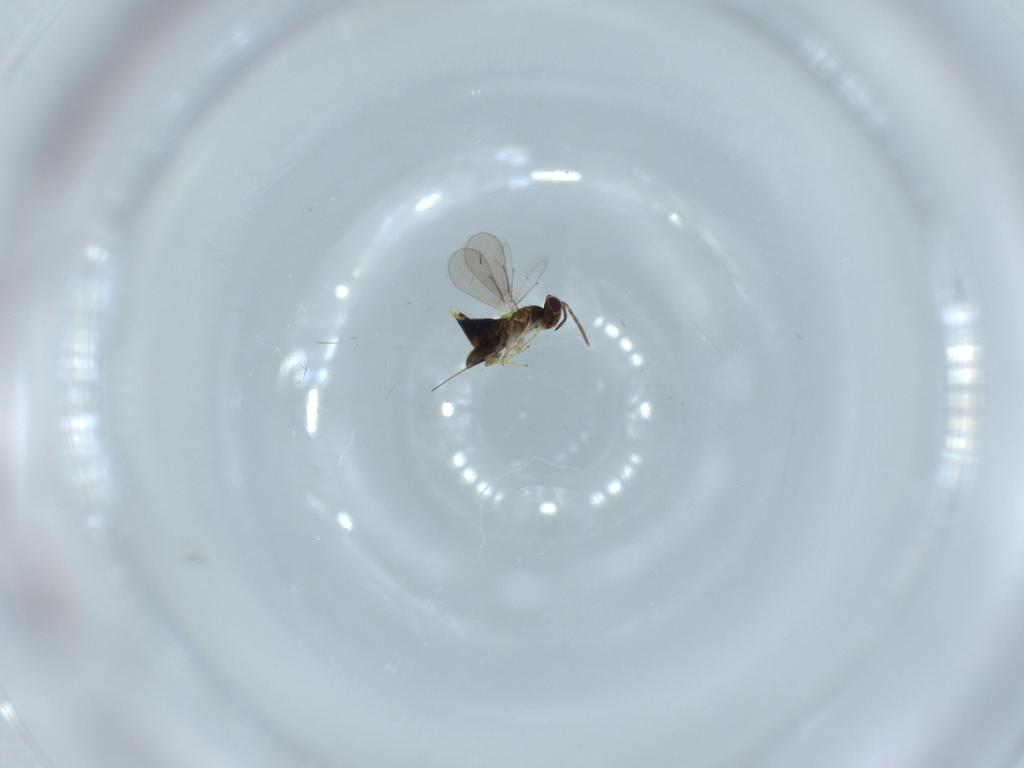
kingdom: Animalia
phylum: Arthropoda
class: Insecta
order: Hymenoptera
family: Aphelinidae
